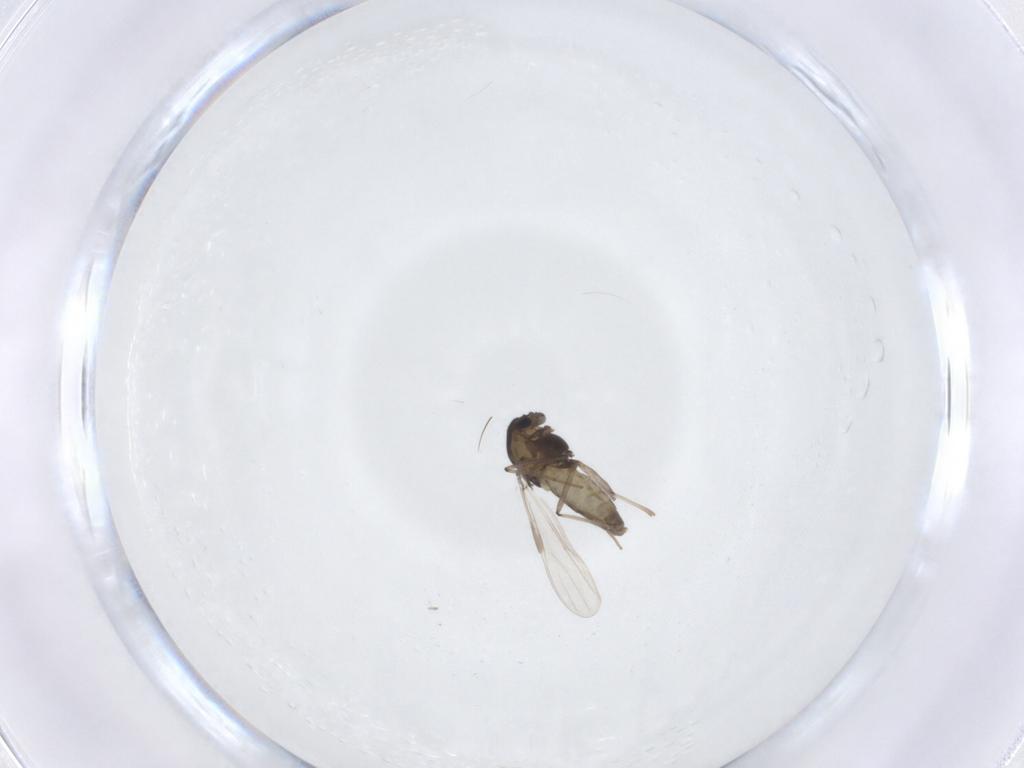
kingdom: Animalia
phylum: Arthropoda
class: Insecta
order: Diptera
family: Chironomidae
